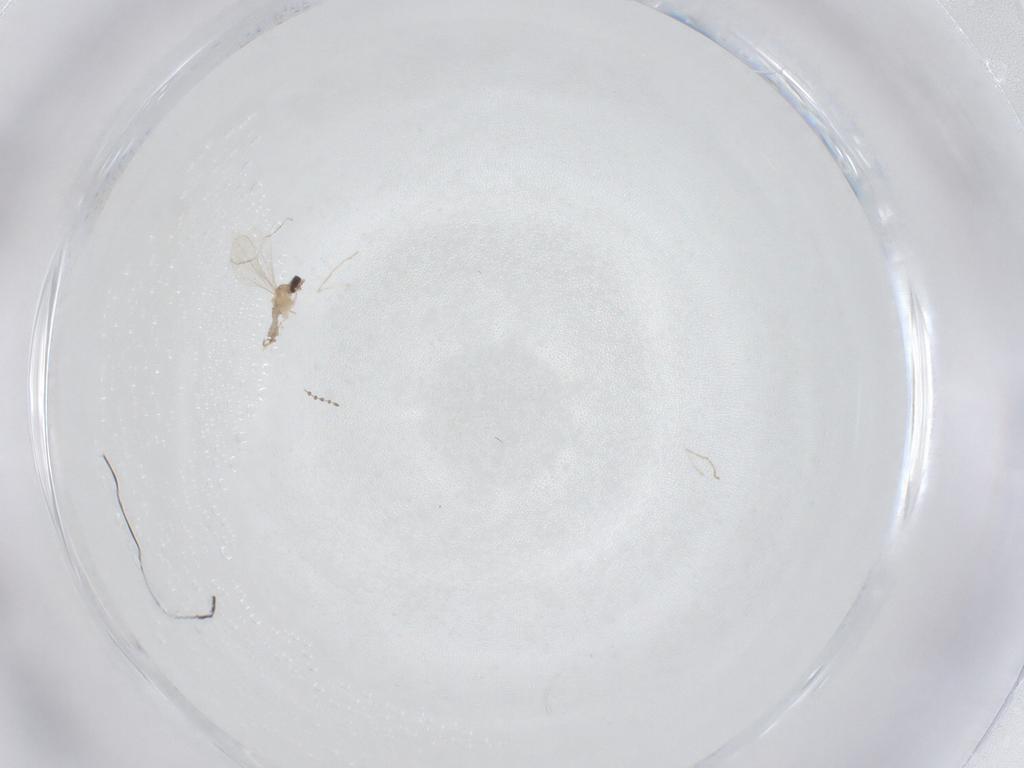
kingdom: Animalia
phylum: Arthropoda
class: Insecta
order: Diptera
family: Cecidomyiidae
